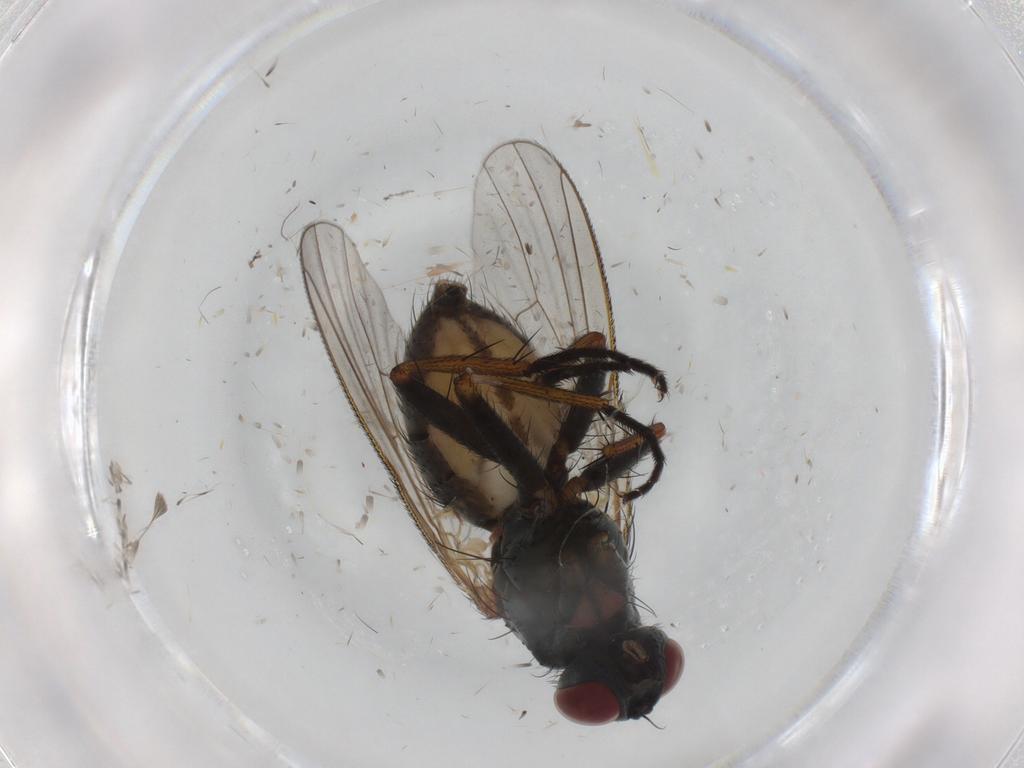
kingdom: Animalia
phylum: Arthropoda
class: Insecta
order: Diptera
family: Muscidae
